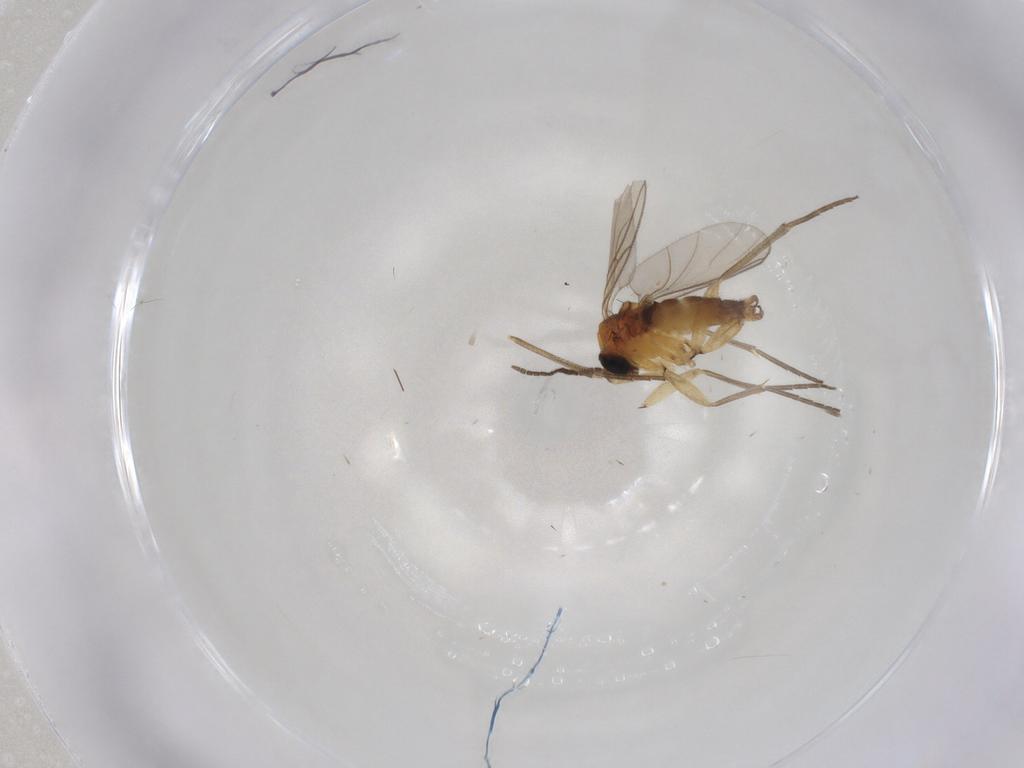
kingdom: Animalia
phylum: Arthropoda
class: Insecta
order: Diptera
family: Sciaridae
